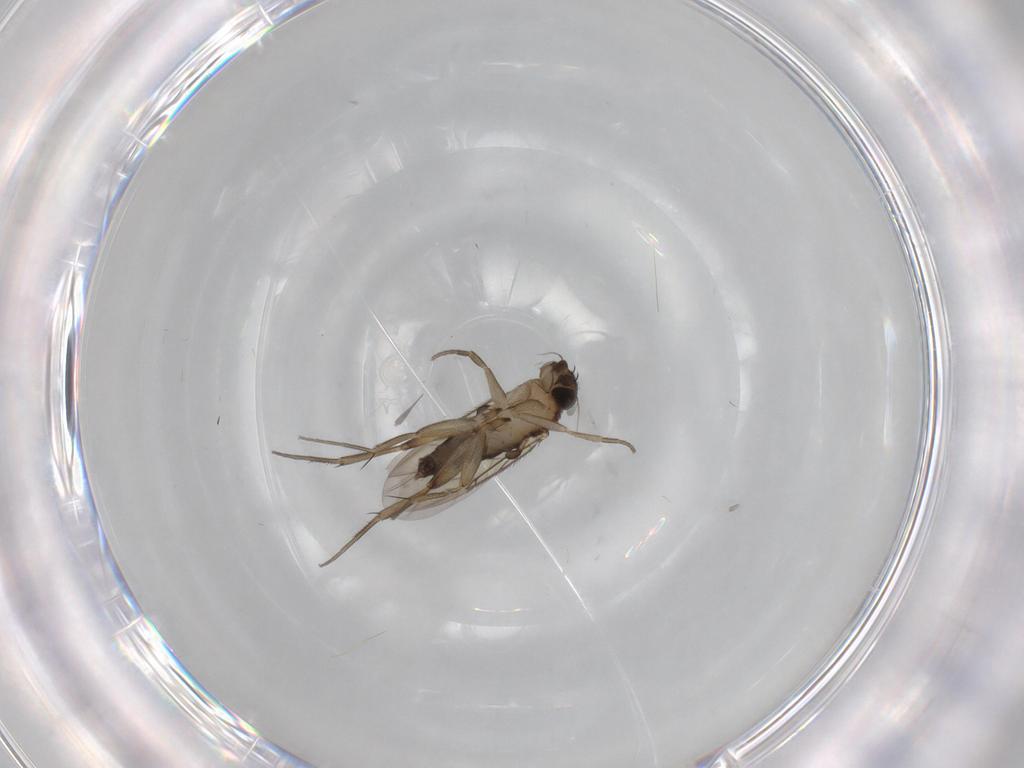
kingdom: Animalia
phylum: Arthropoda
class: Insecta
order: Diptera
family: Phoridae
